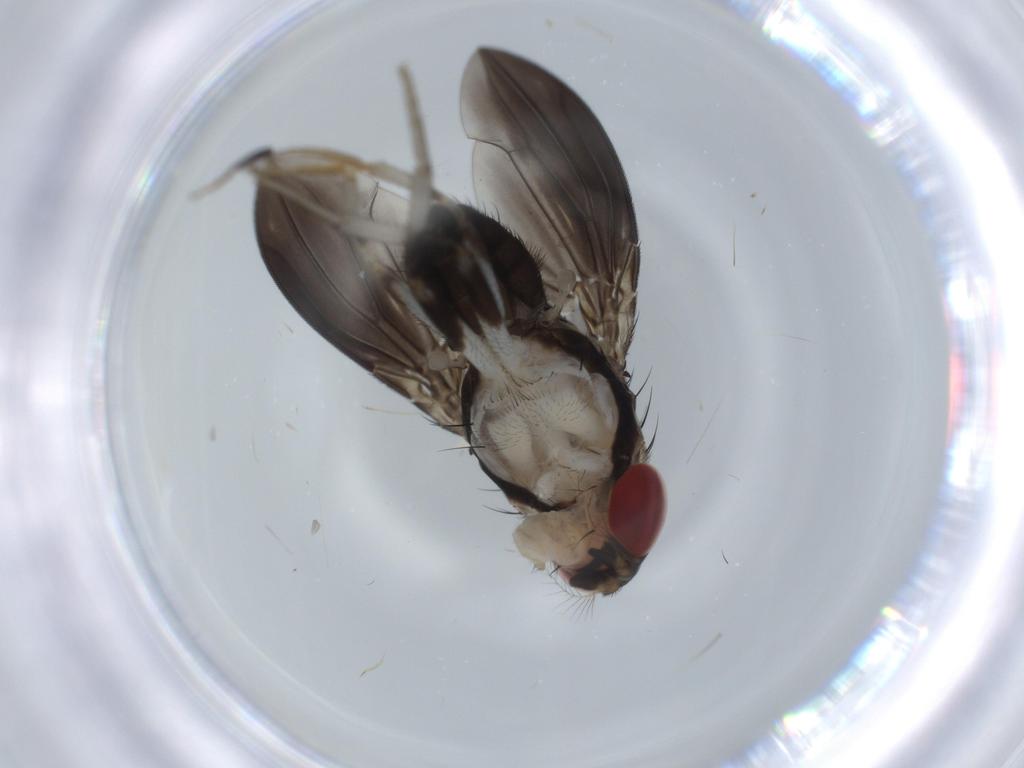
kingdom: Animalia
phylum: Arthropoda
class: Insecta
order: Diptera
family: Drosophilidae
